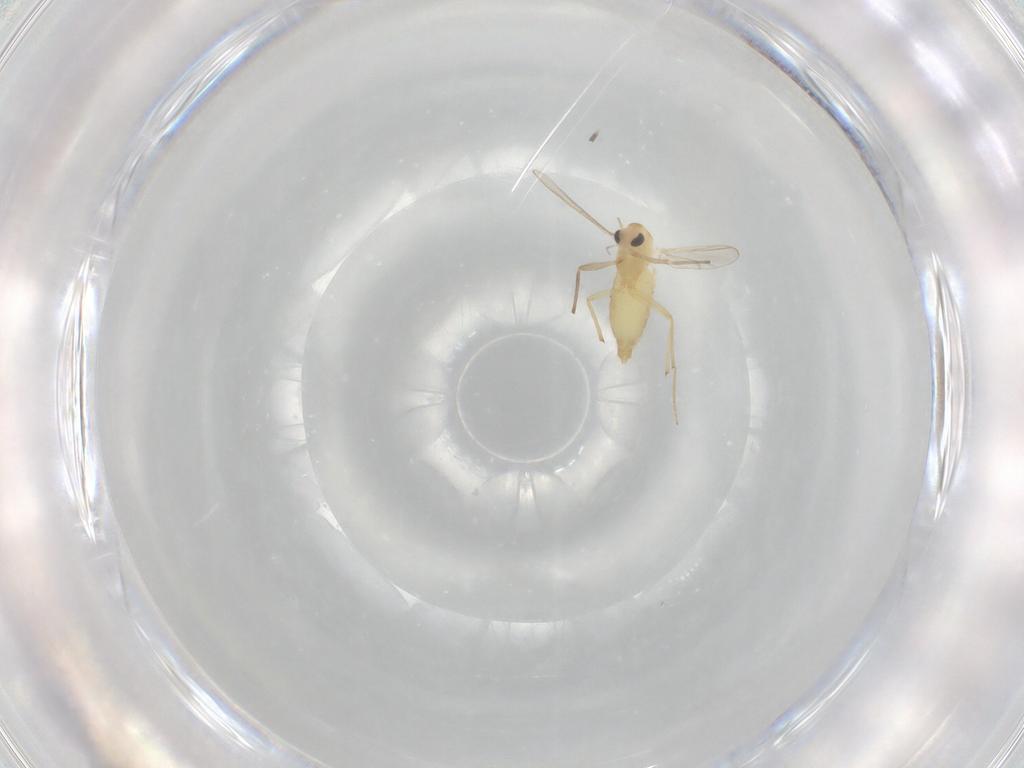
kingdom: Animalia
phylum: Arthropoda
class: Insecta
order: Diptera
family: Chironomidae
